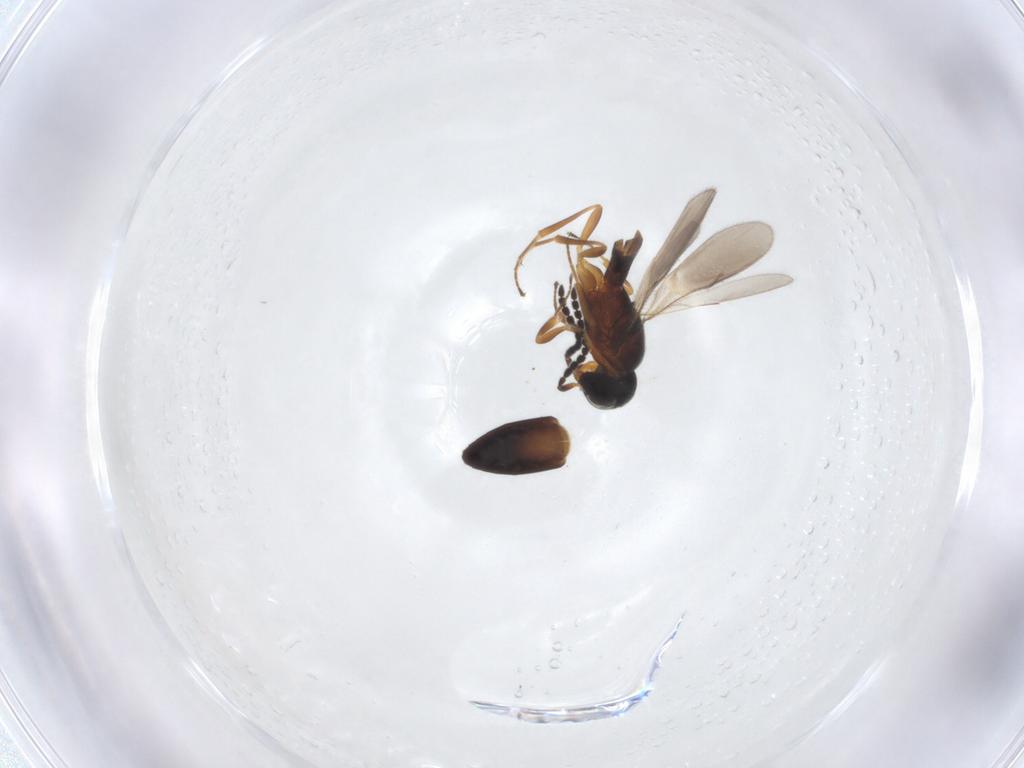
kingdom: Animalia
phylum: Arthropoda
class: Insecta
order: Hymenoptera
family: Scelionidae
